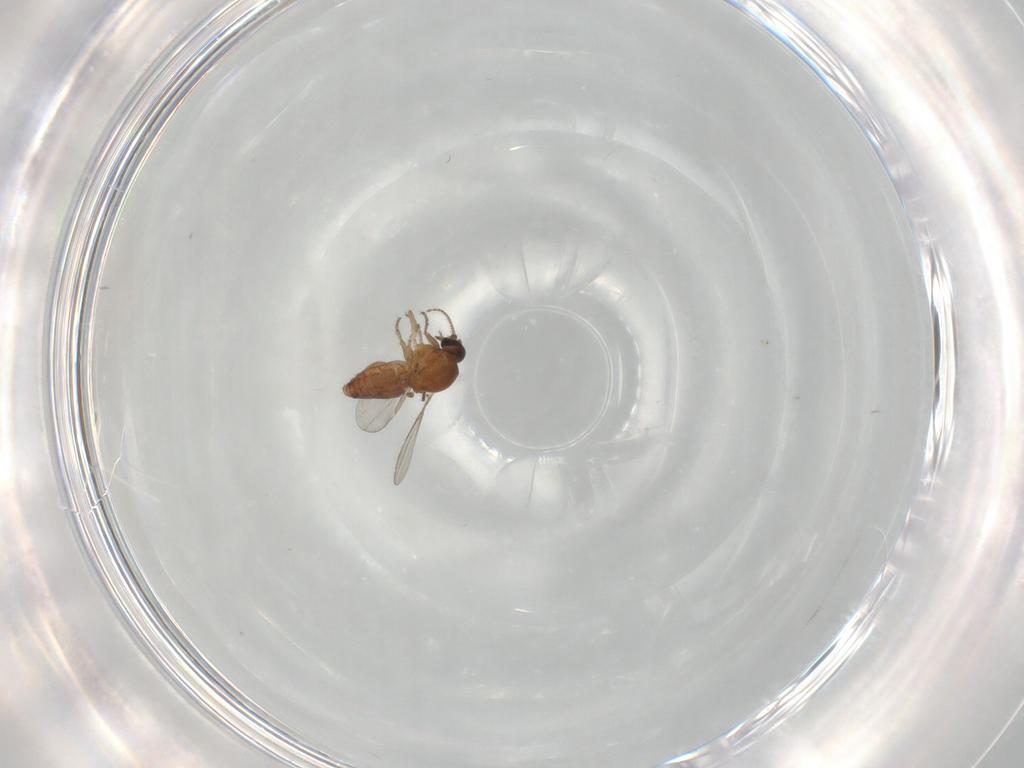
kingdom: Animalia
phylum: Arthropoda
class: Insecta
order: Diptera
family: Ceratopogonidae
